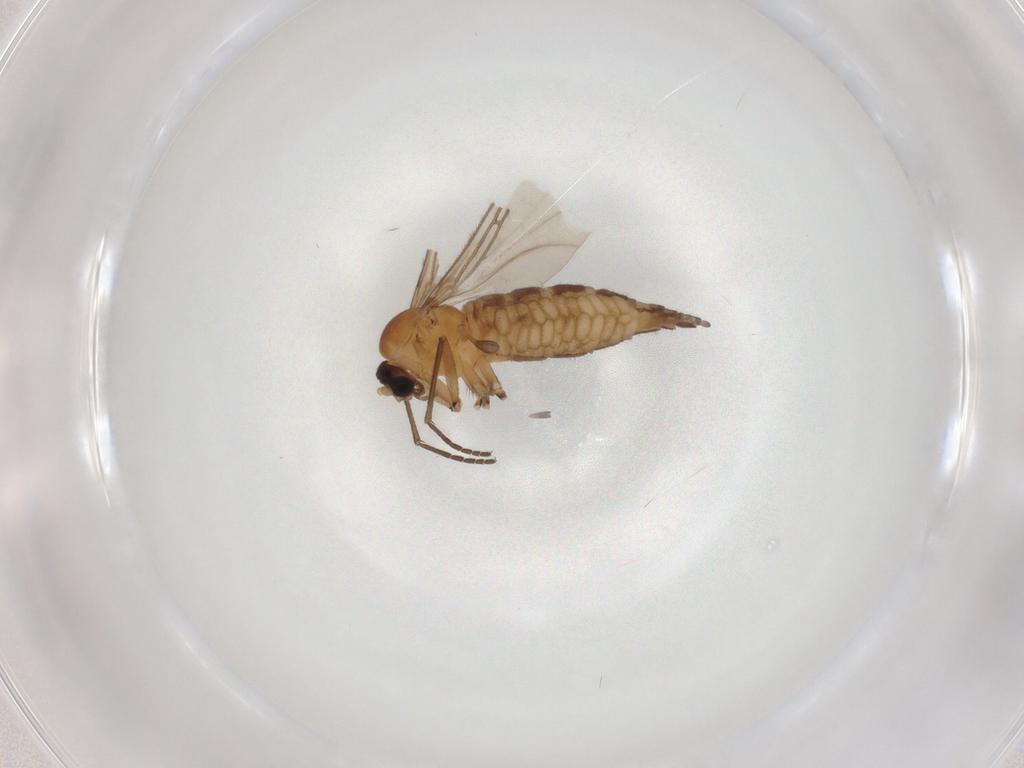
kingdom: Animalia
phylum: Arthropoda
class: Insecta
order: Diptera
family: Sciaridae
